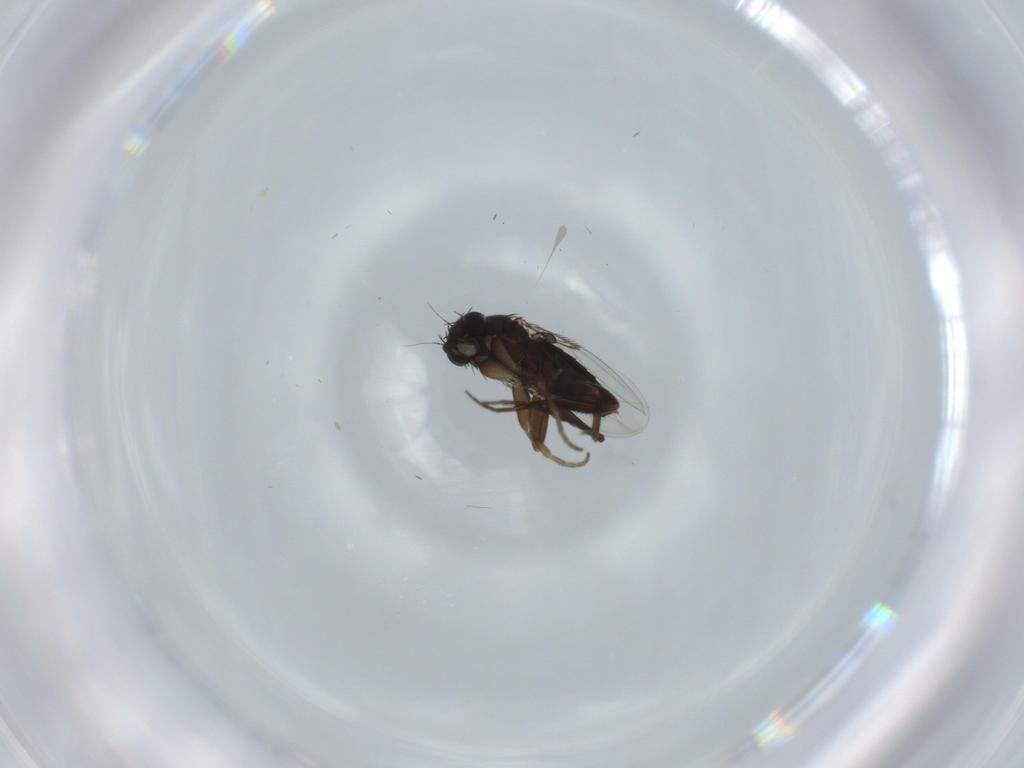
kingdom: Animalia
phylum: Arthropoda
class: Insecta
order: Diptera
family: Phoridae
